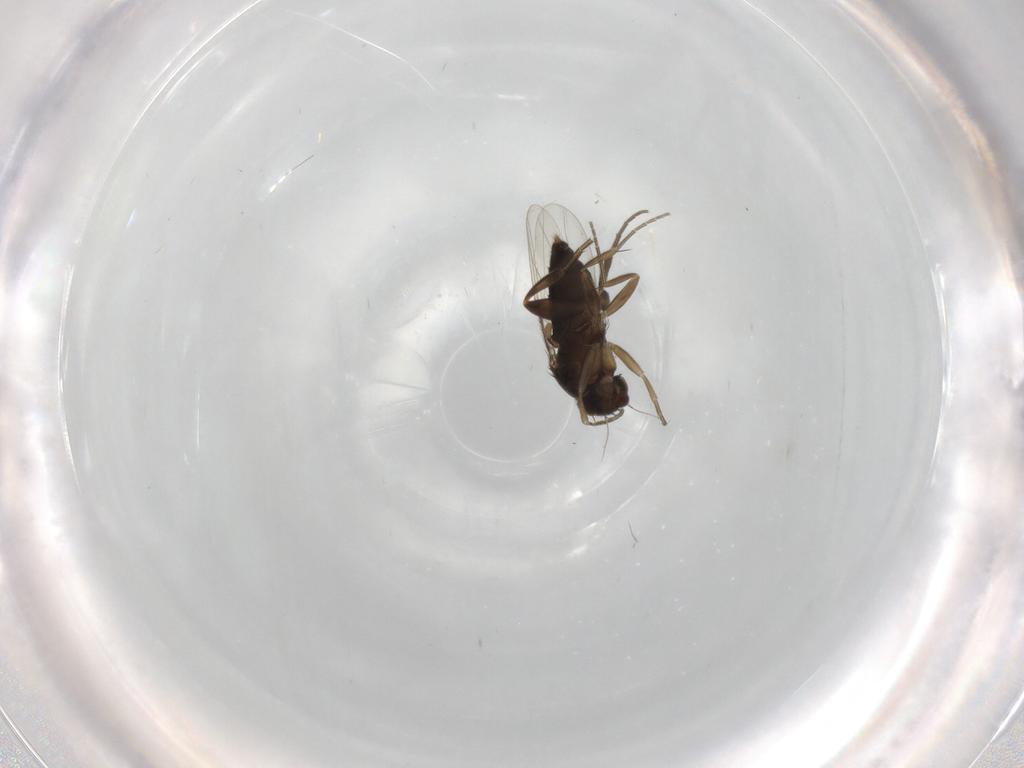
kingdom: Animalia
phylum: Arthropoda
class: Insecta
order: Diptera
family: Phoridae
